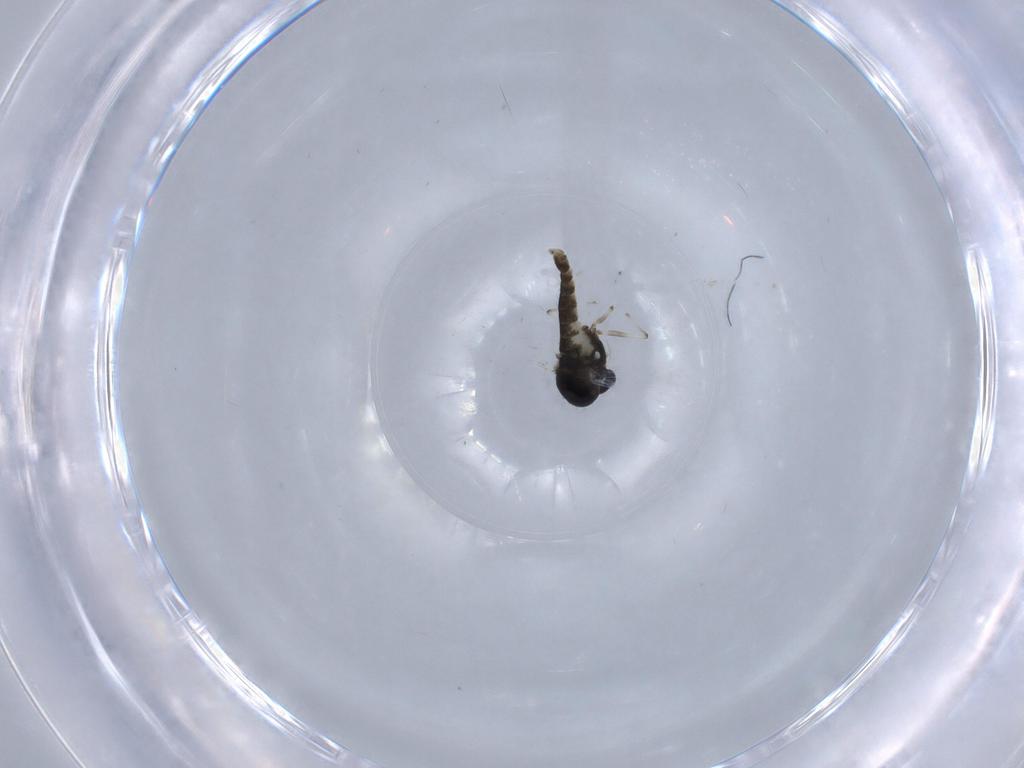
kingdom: Animalia
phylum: Arthropoda
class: Insecta
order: Diptera
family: Chironomidae
